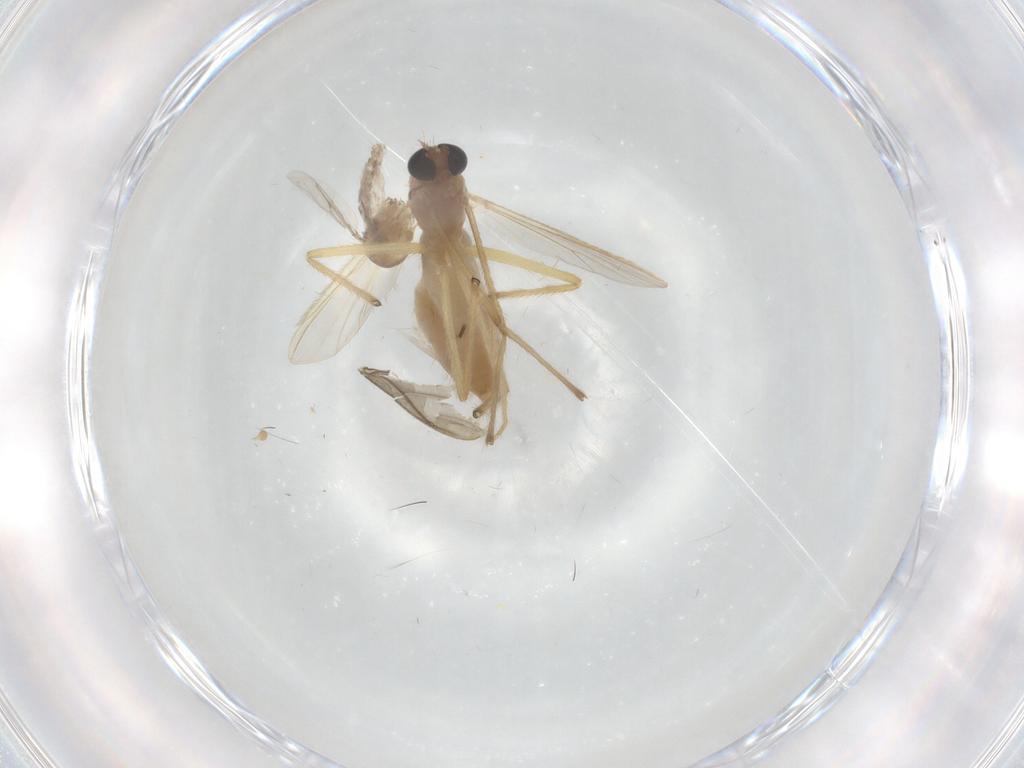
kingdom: Animalia
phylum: Arthropoda
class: Insecta
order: Diptera
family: Chironomidae
